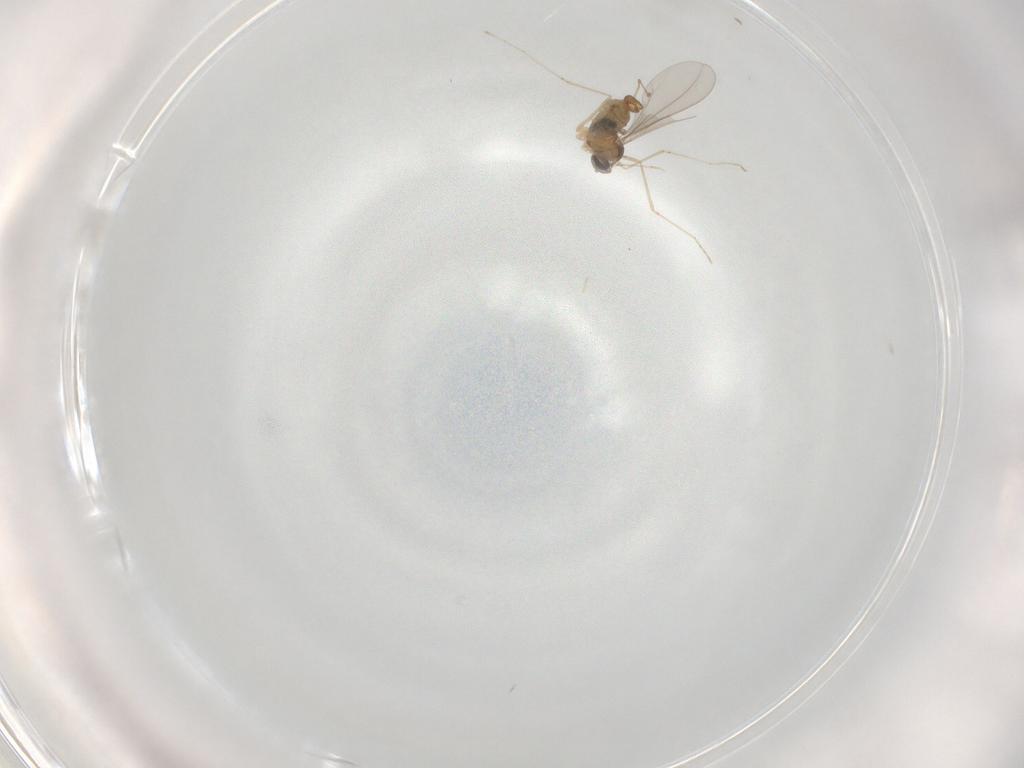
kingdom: Animalia
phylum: Arthropoda
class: Insecta
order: Diptera
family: Cecidomyiidae
